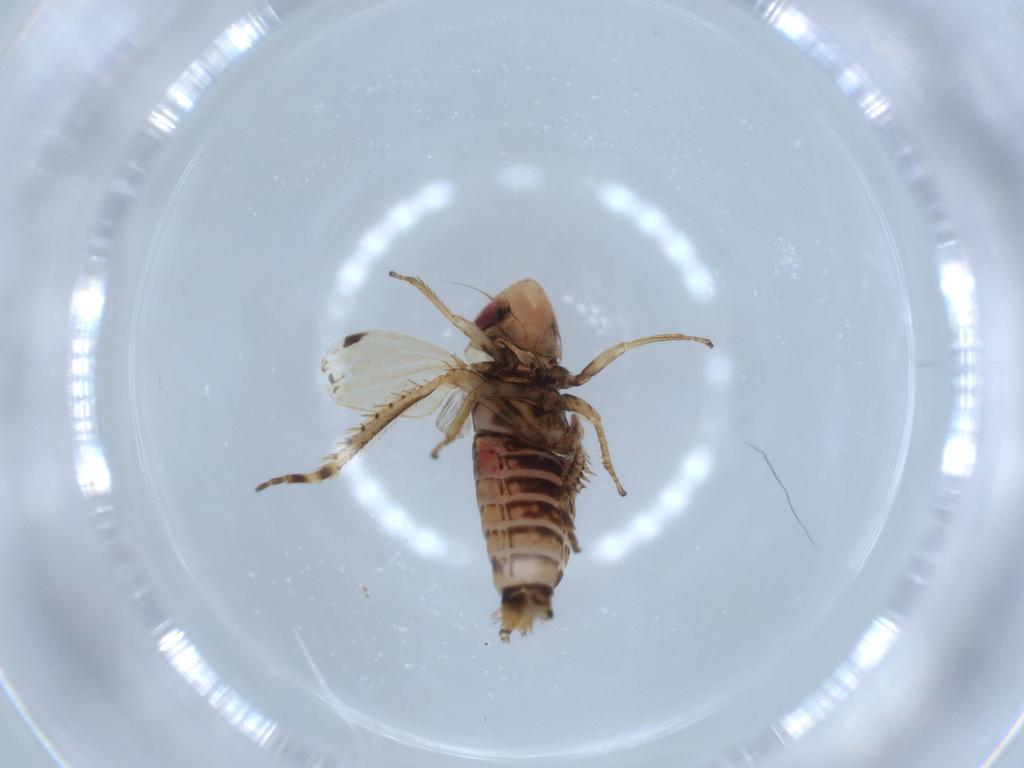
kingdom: Animalia
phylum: Arthropoda
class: Insecta
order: Hemiptera
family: Cicadellidae
